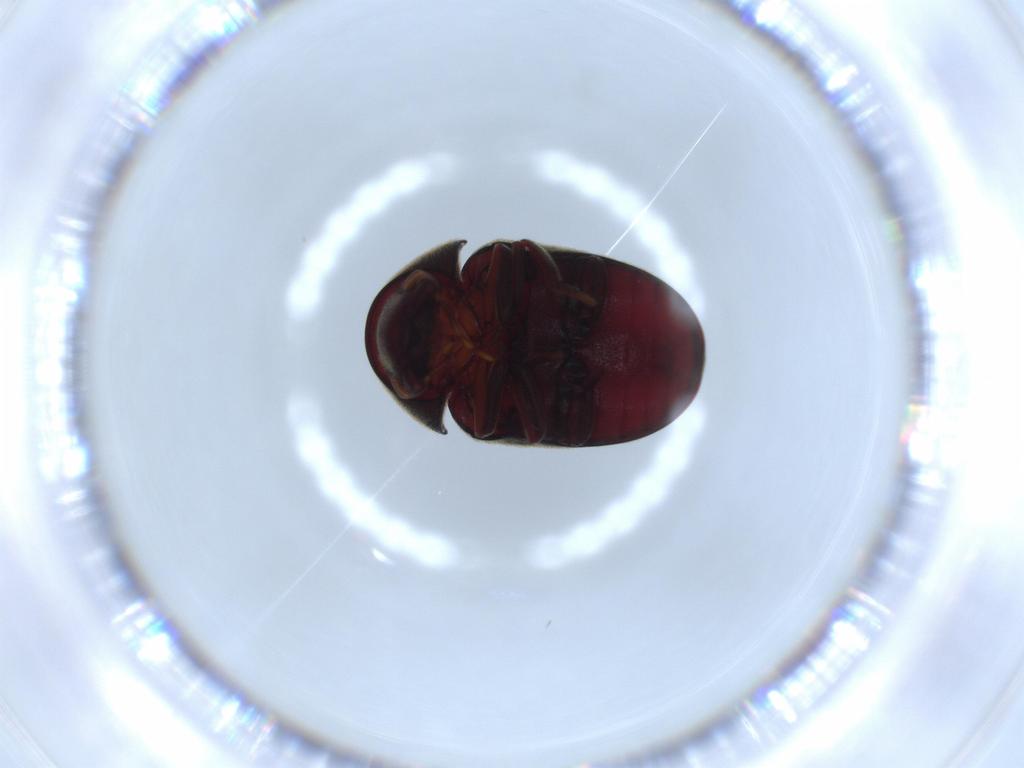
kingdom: Animalia
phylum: Arthropoda
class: Insecta
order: Coleoptera
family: Ptinidae
